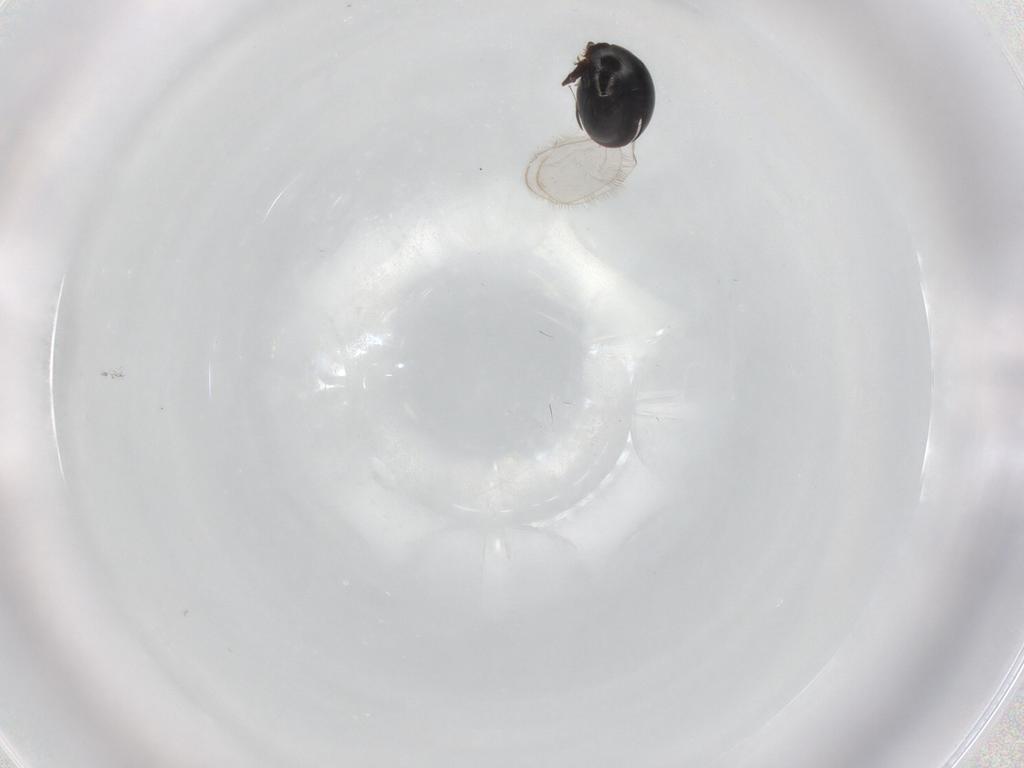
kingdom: Animalia
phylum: Arthropoda
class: Insecta
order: Coleoptera
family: Corylophidae
